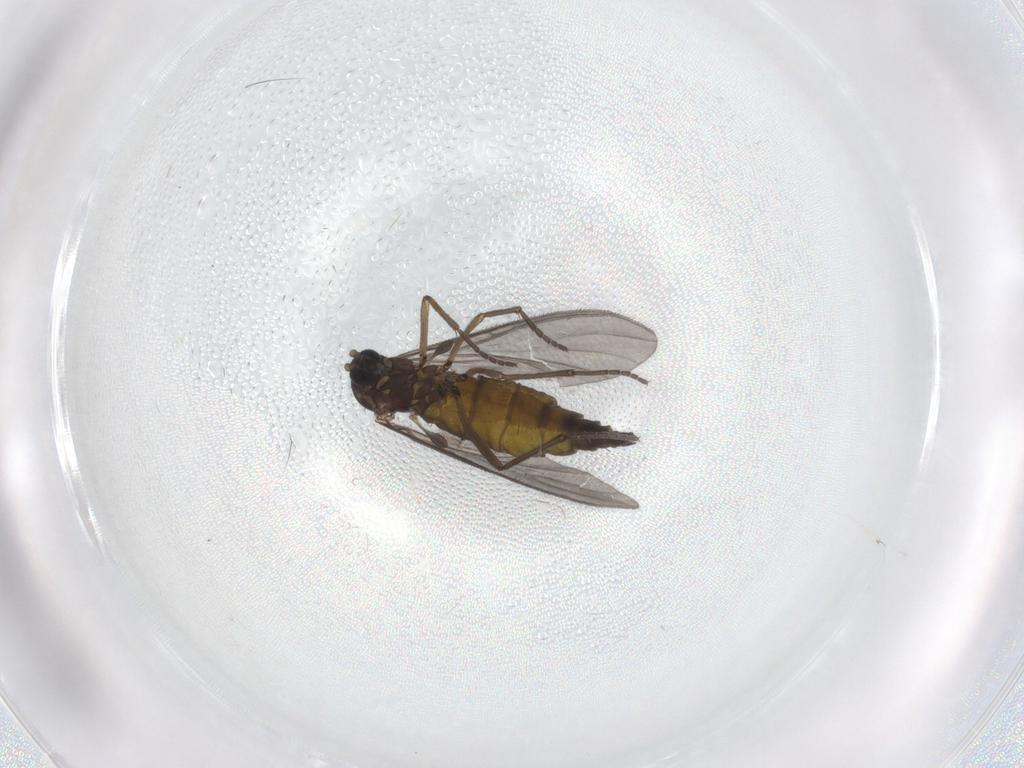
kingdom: Animalia
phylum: Arthropoda
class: Insecta
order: Diptera
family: Sciaridae
